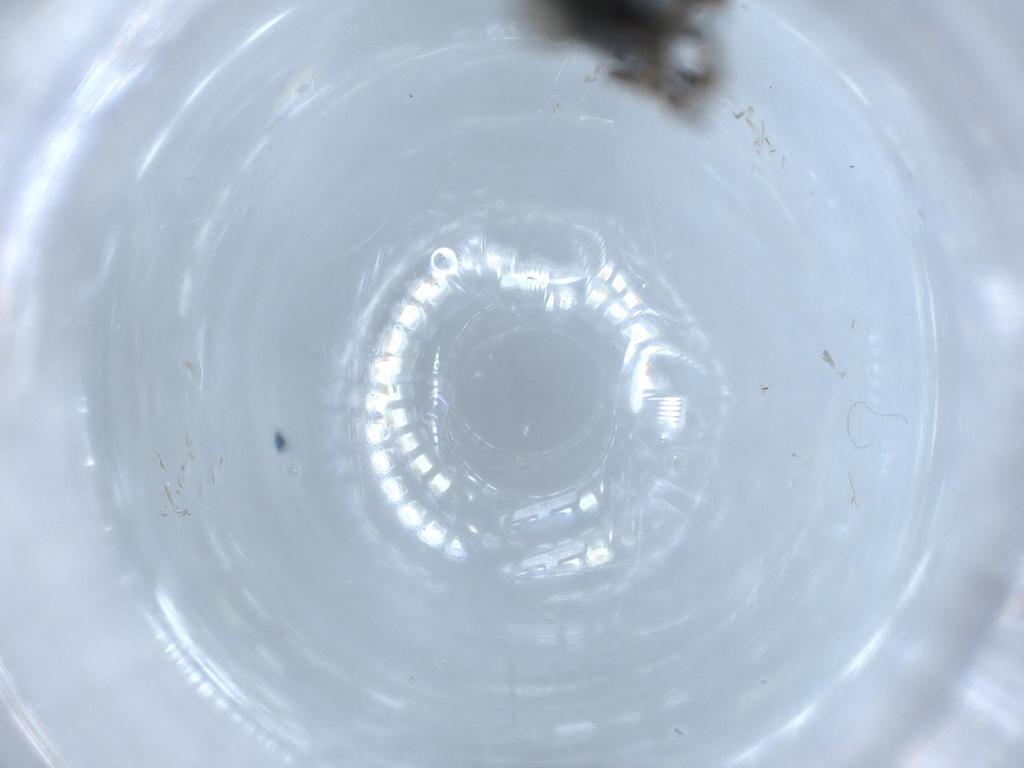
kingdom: Animalia
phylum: Arthropoda
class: Insecta
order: Hymenoptera
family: Eupelmidae
